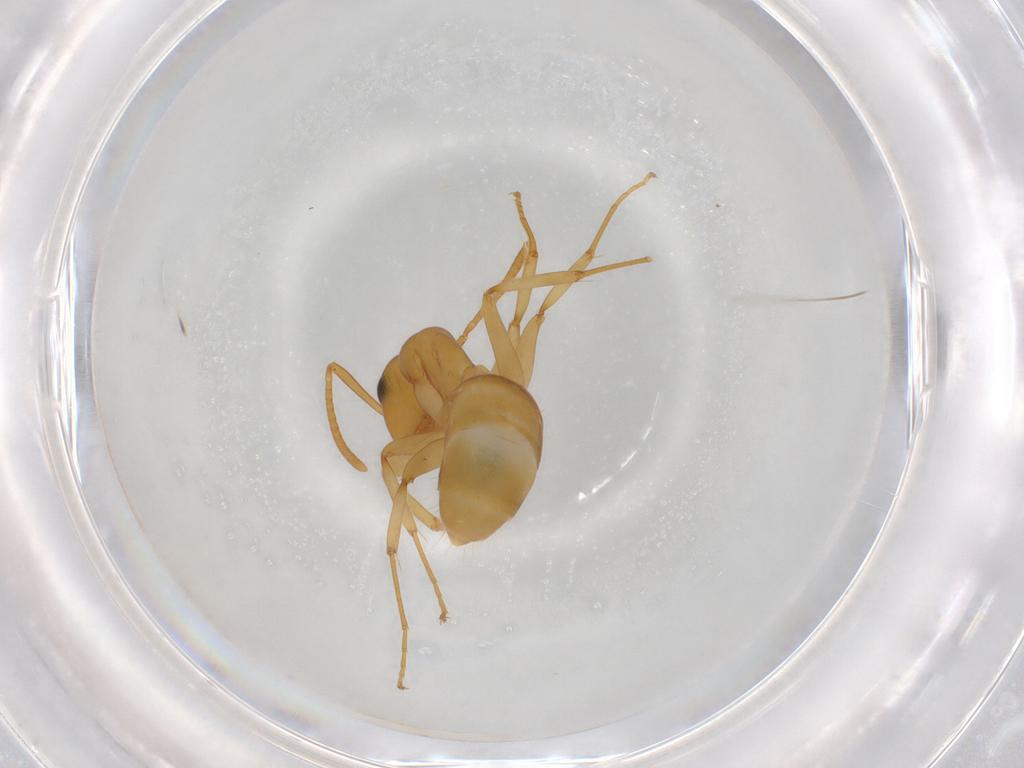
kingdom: Animalia
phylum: Arthropoda
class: Insecta
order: Hymenoptera
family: Formicidae
